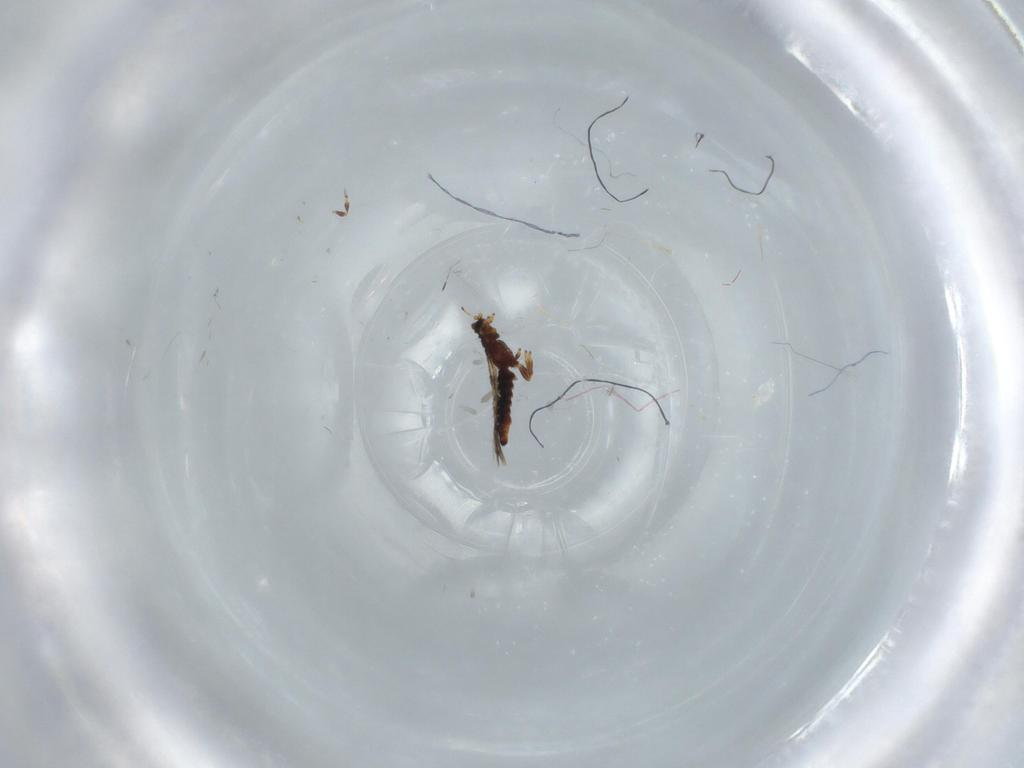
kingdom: Animalia
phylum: Arthropoda
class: Insecta
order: Thysanoptera
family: Thripidae
